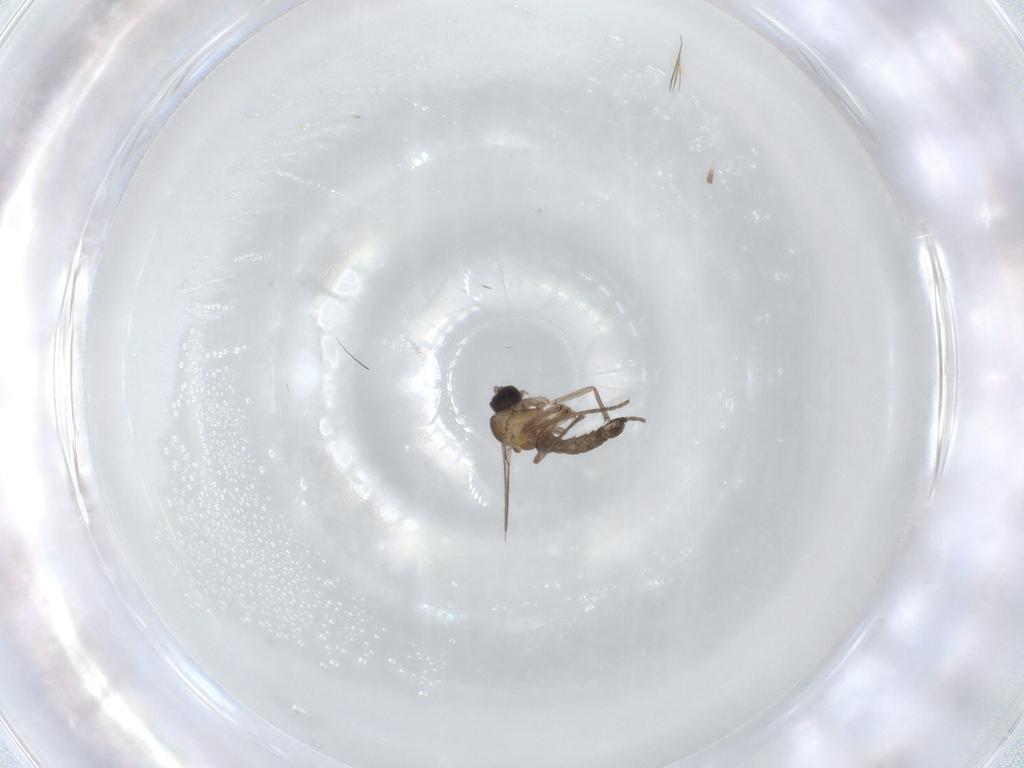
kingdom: Animalia
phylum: Arthropoda
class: Insecta
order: Diptera
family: Sciaridae
